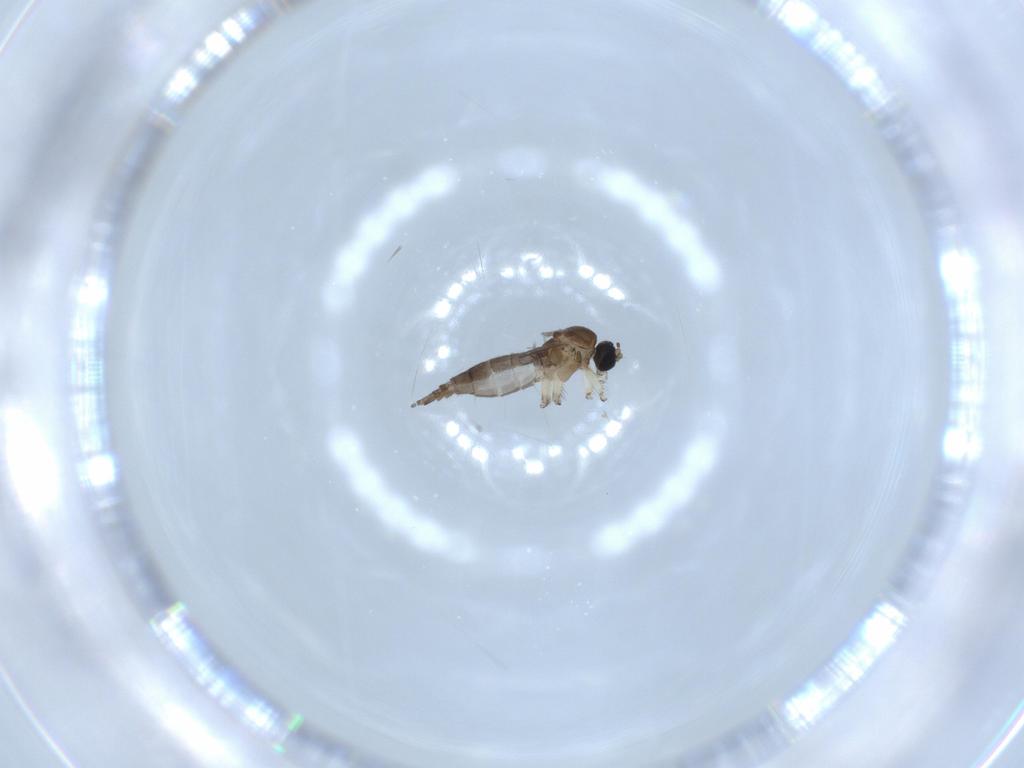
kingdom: Animalia
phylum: Arthropoda
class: Insecta
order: Diptera
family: Sciaridae
